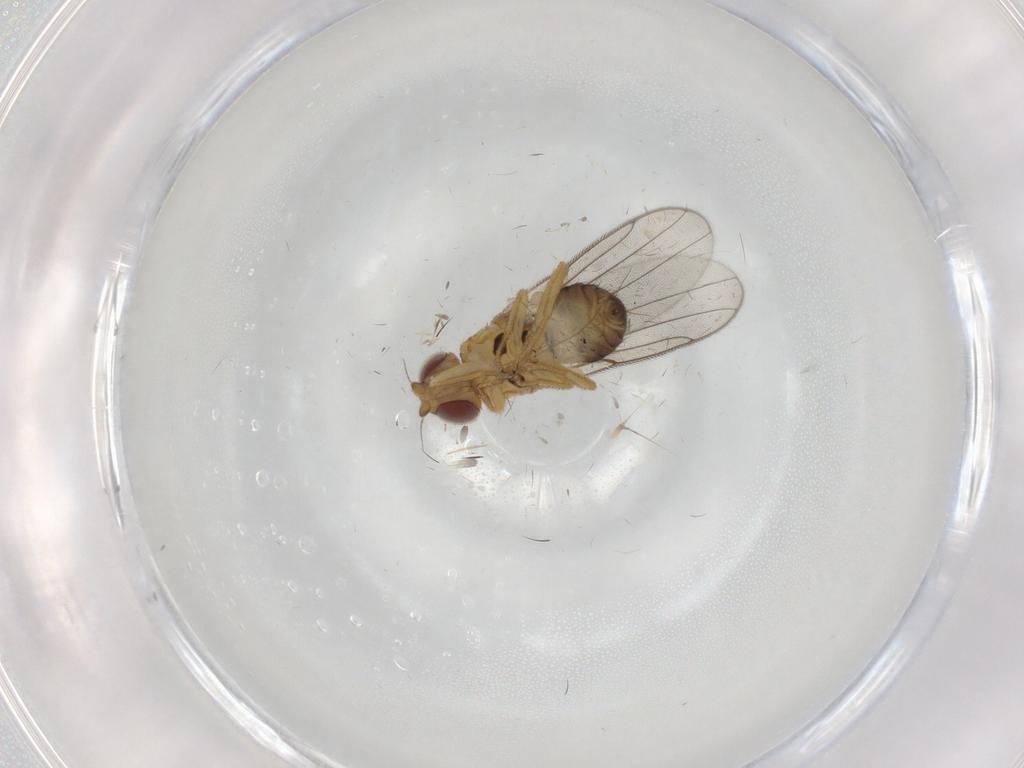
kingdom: Animalia
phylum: Arthropoda
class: Insecta
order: Diptera
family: Chloropidae
